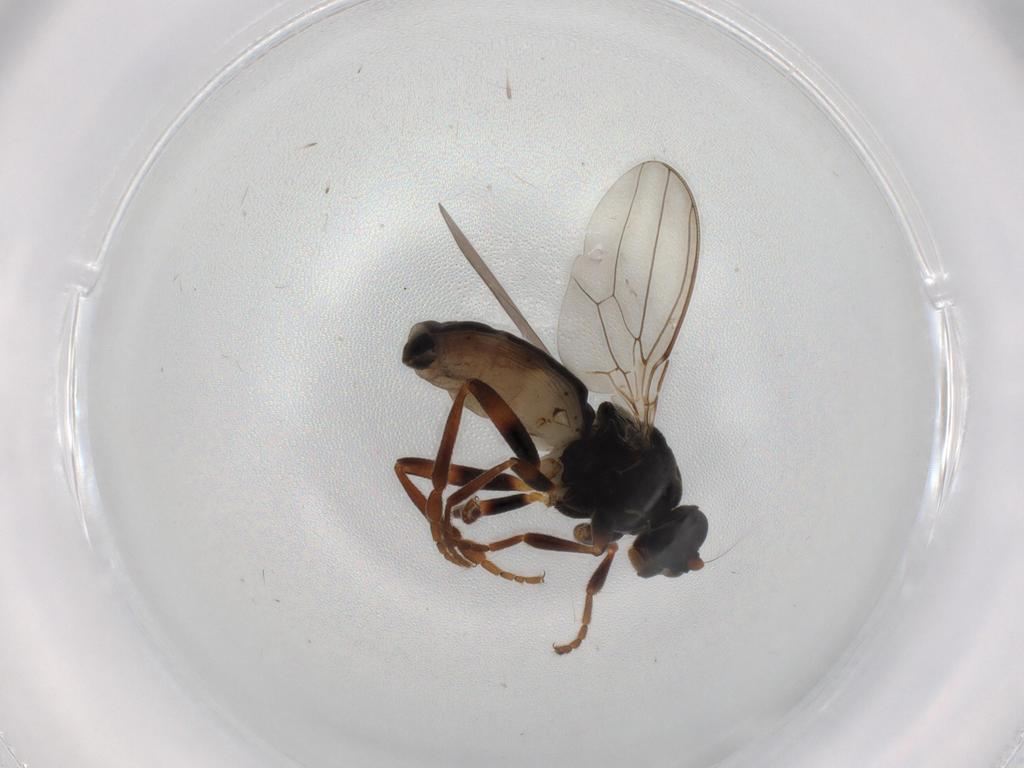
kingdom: Animalia
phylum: Arthropoda
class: Insecta
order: Diptera
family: Sphaeroceridae
